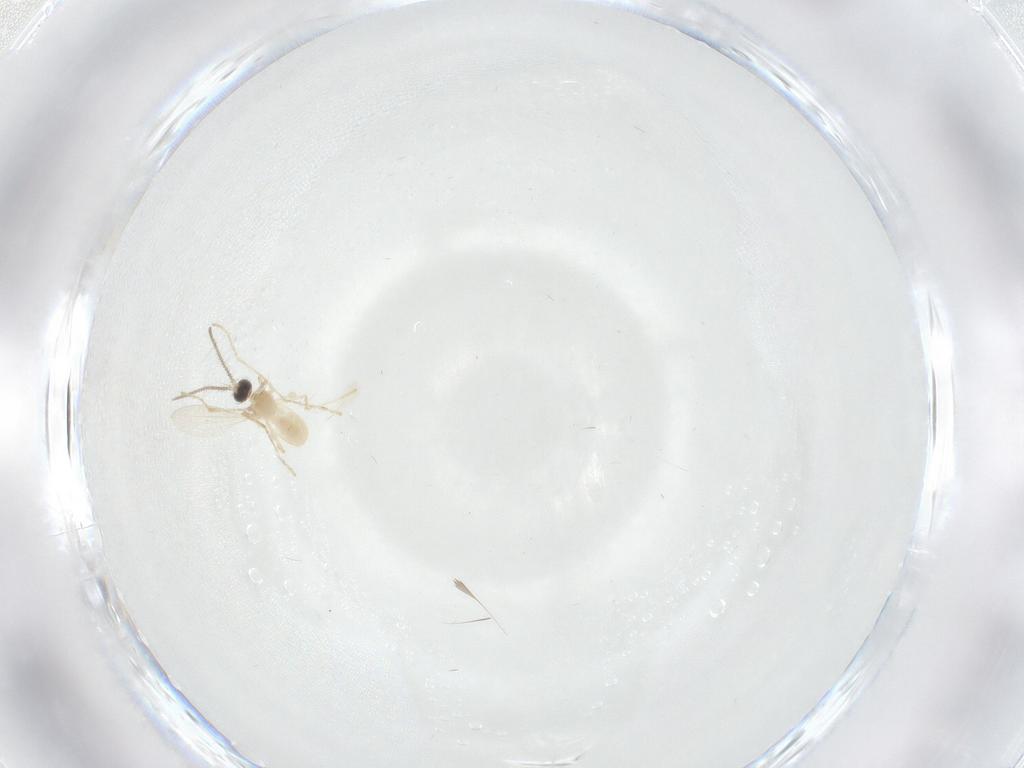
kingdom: Animalia
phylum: Arthropoda
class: Insecta
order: Diptera
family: Cecidomyiidae
